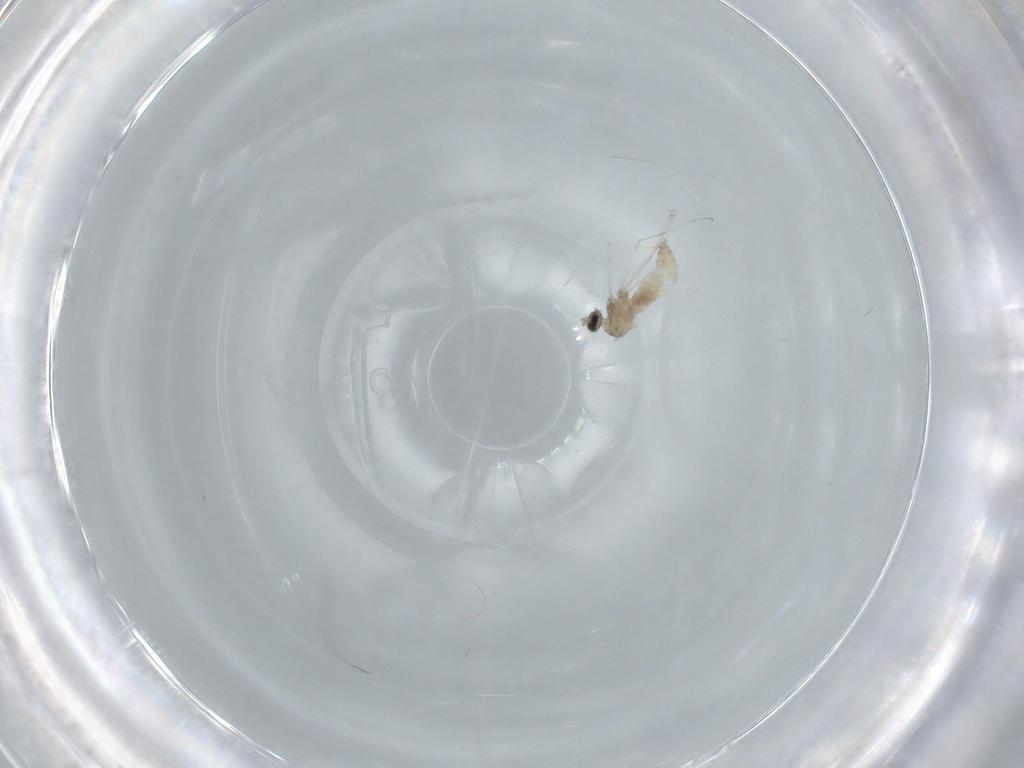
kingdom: Animalia
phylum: Arthropoda
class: Insecta
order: Diptera
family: Cecidomyiidae
